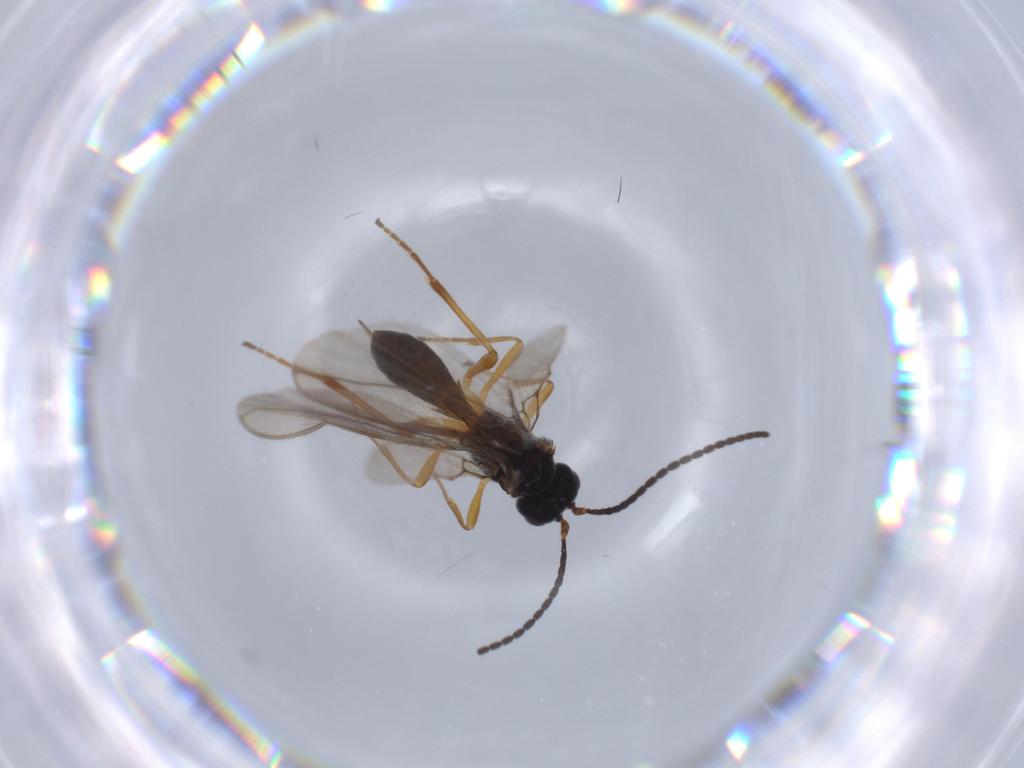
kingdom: Animalia
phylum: Arthropoda
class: Insecta
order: Hymenoptera
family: Braconidae
